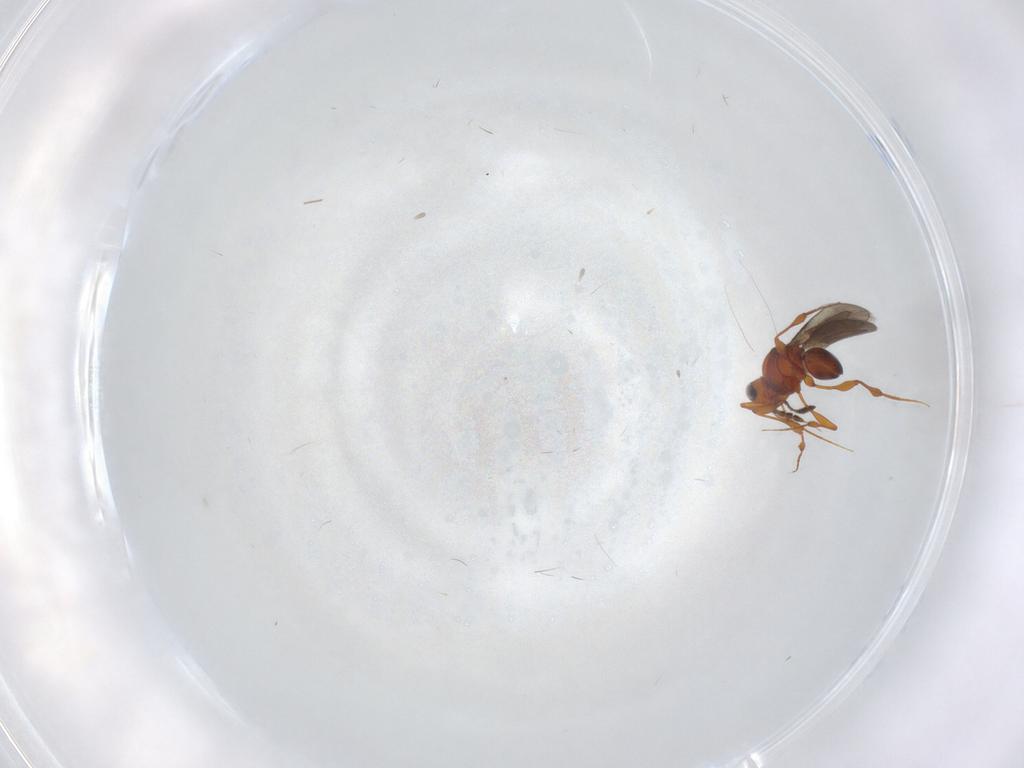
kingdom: Animalia
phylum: Arthropoda
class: Insecta
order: Hymenoptera
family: Platygastridae
